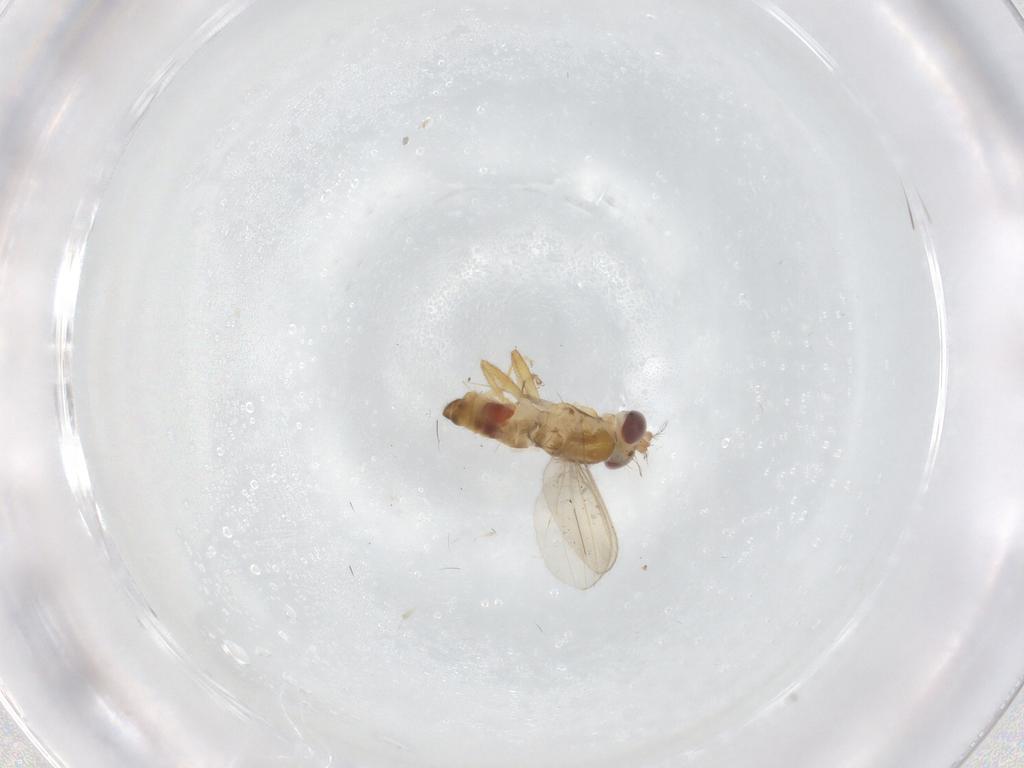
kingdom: Animalia
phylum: Arthropoda
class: Insecta
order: Diptera
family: Periscelididae
